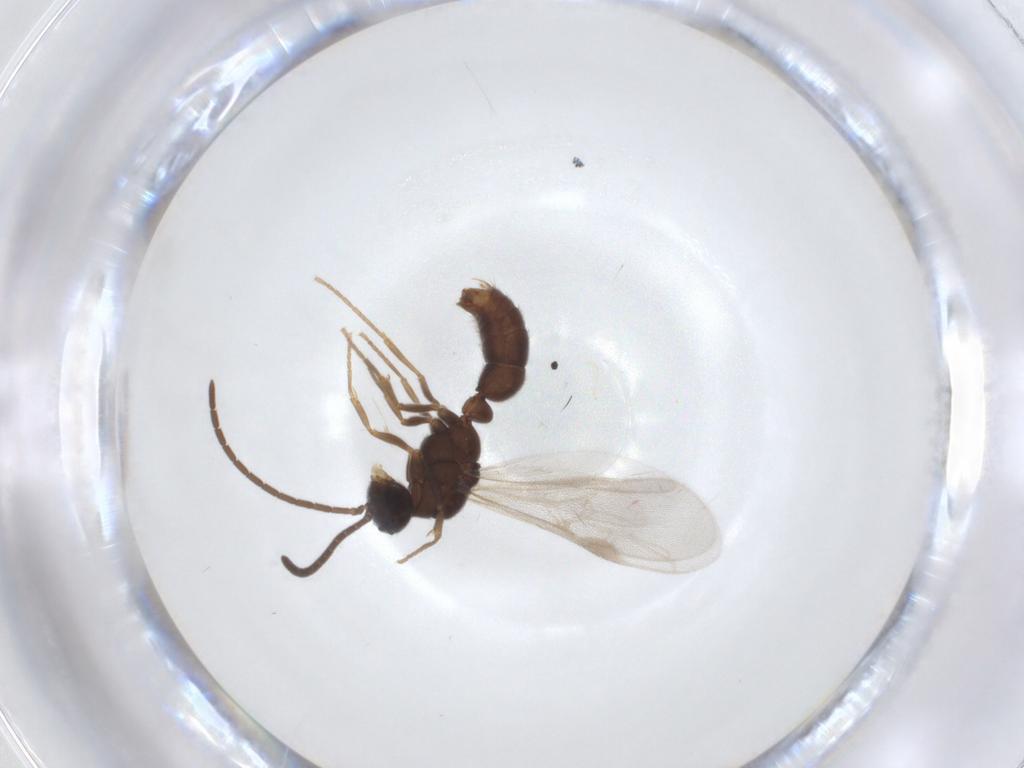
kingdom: Animalia
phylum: Arthropoda
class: Insecta
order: Hymenoptera
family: Formicidae
